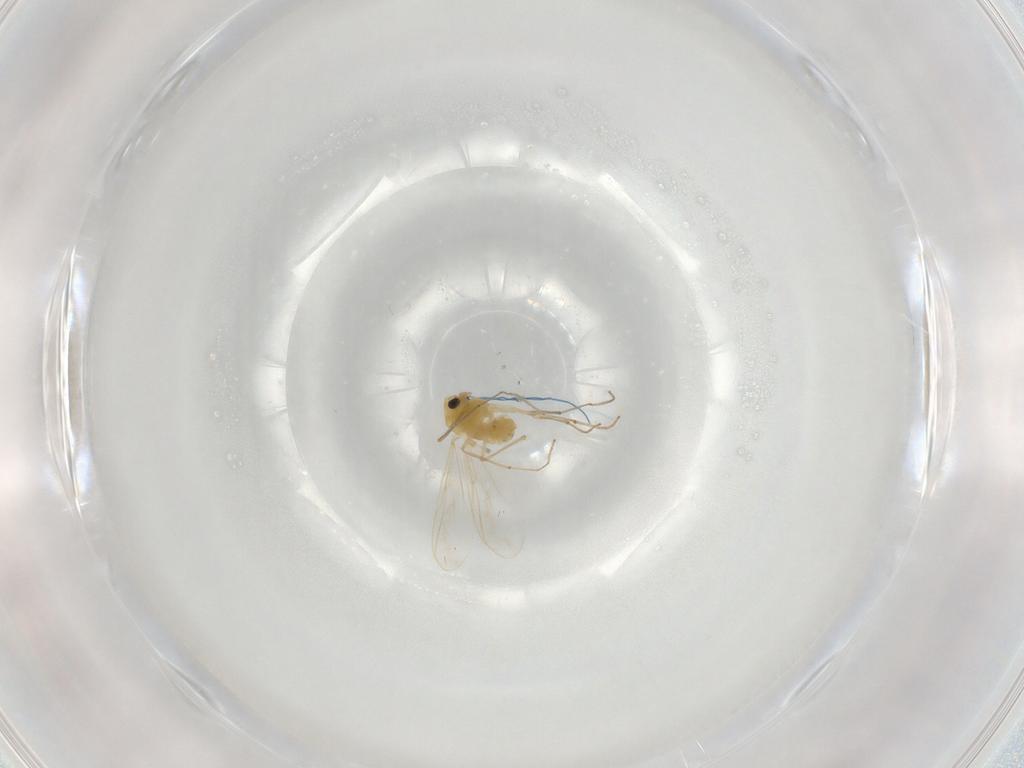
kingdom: Animalia
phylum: Arthropoda
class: Insecta
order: Diptera
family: Chironomidae
